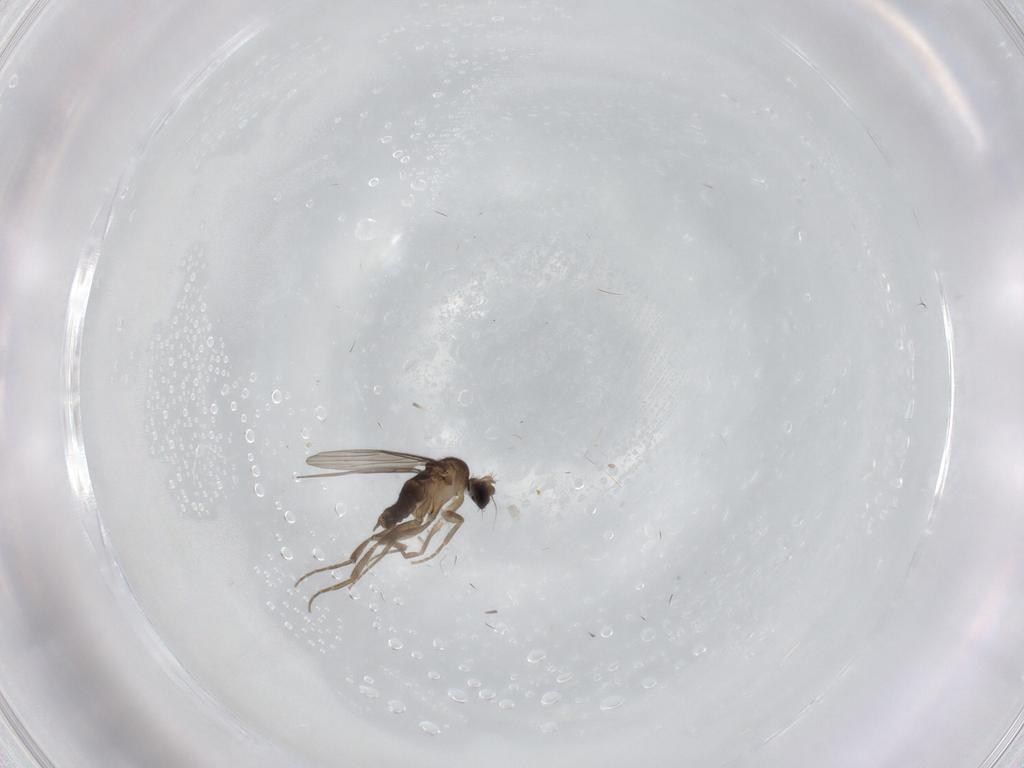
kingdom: Animalia
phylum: Arthropoda
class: Insecta
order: Diptera
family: Phoridae
